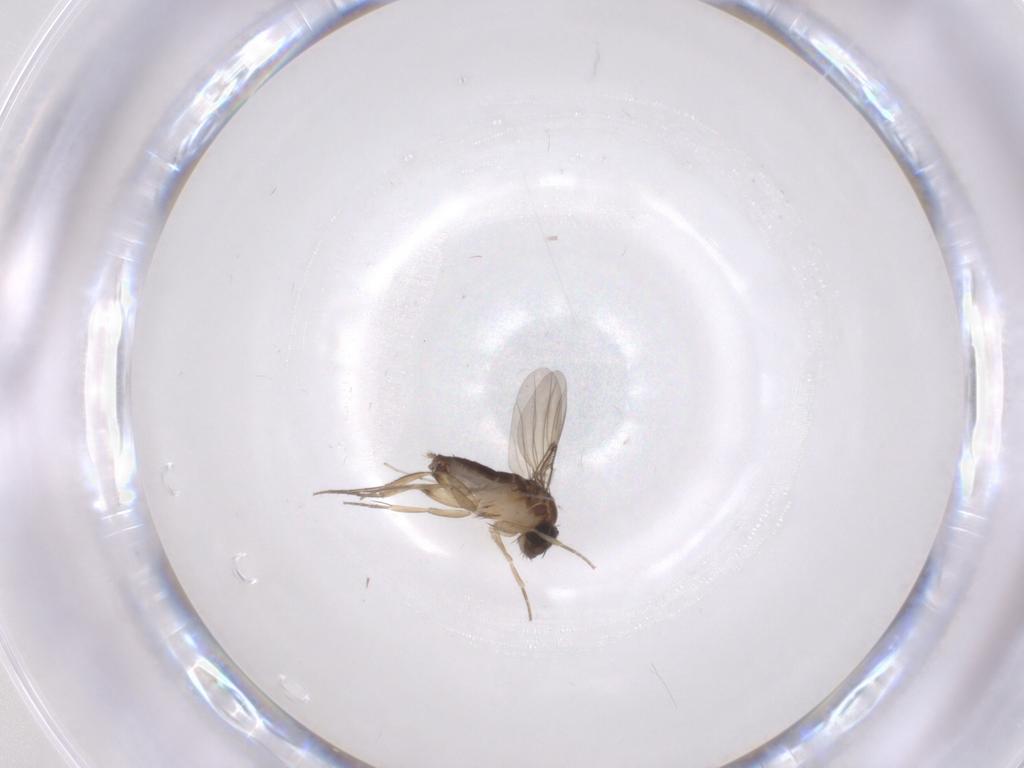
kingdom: Animalia
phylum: Arthropoda
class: Insecta
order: Diptera
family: Phoridae
